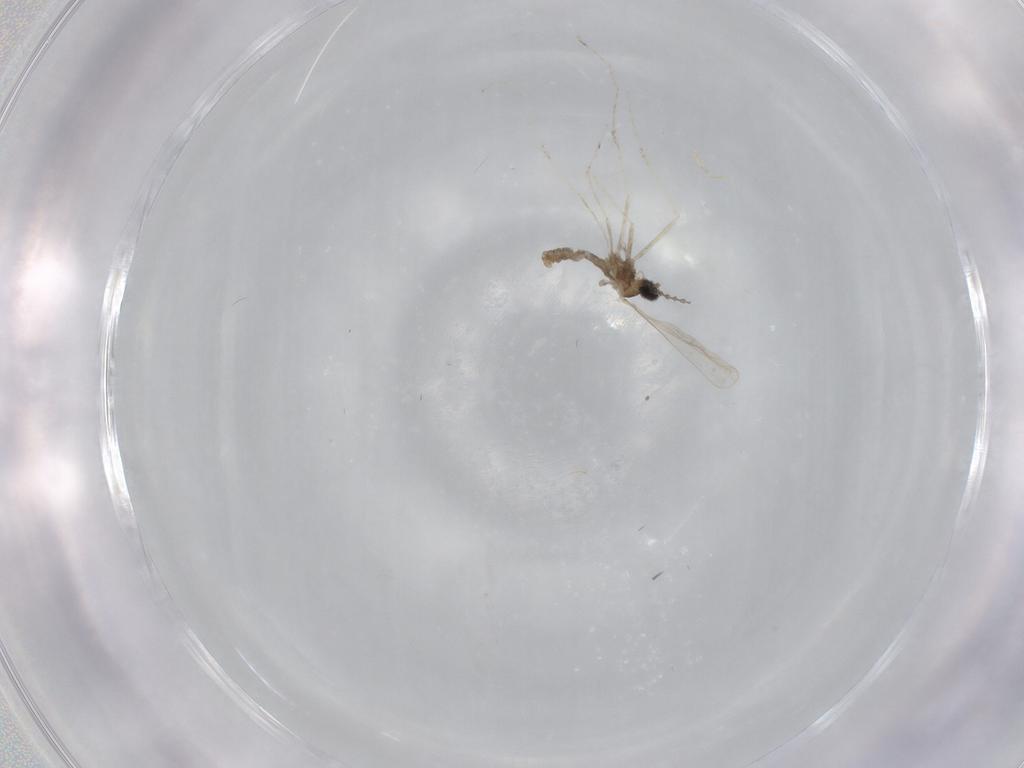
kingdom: Animalia
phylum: Arthropoda
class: Insecta
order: Diptera
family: Cecidomyiidae
